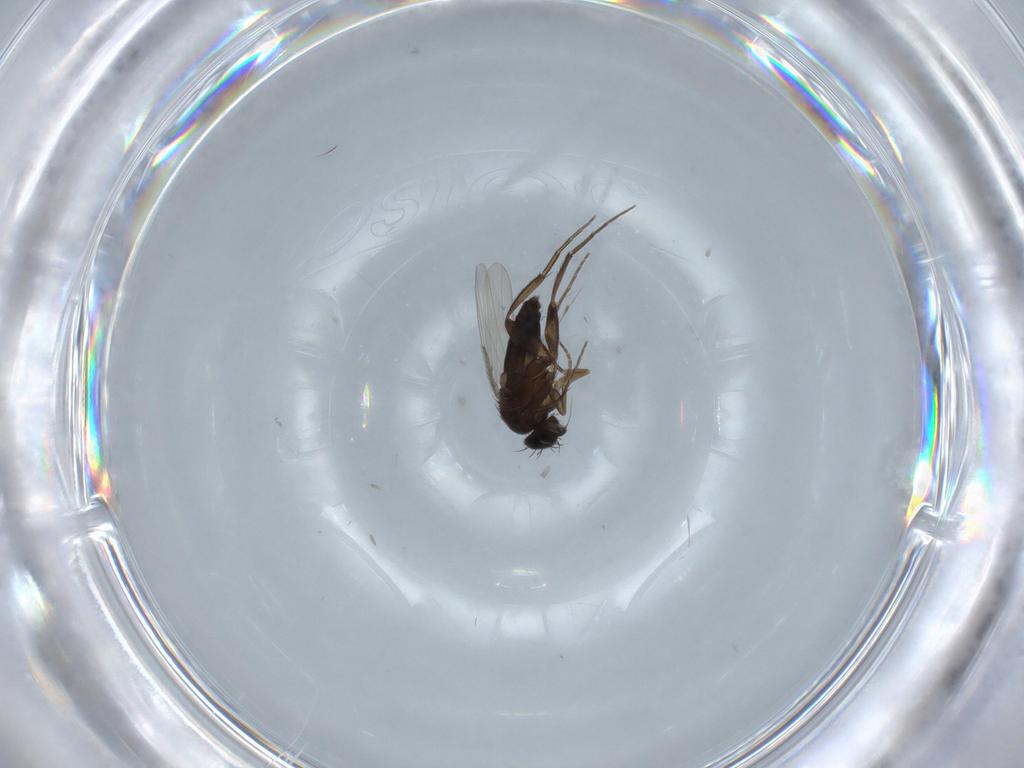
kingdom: Animalia
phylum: Arthropoda
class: Insecta
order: Diptera
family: Phoridae
